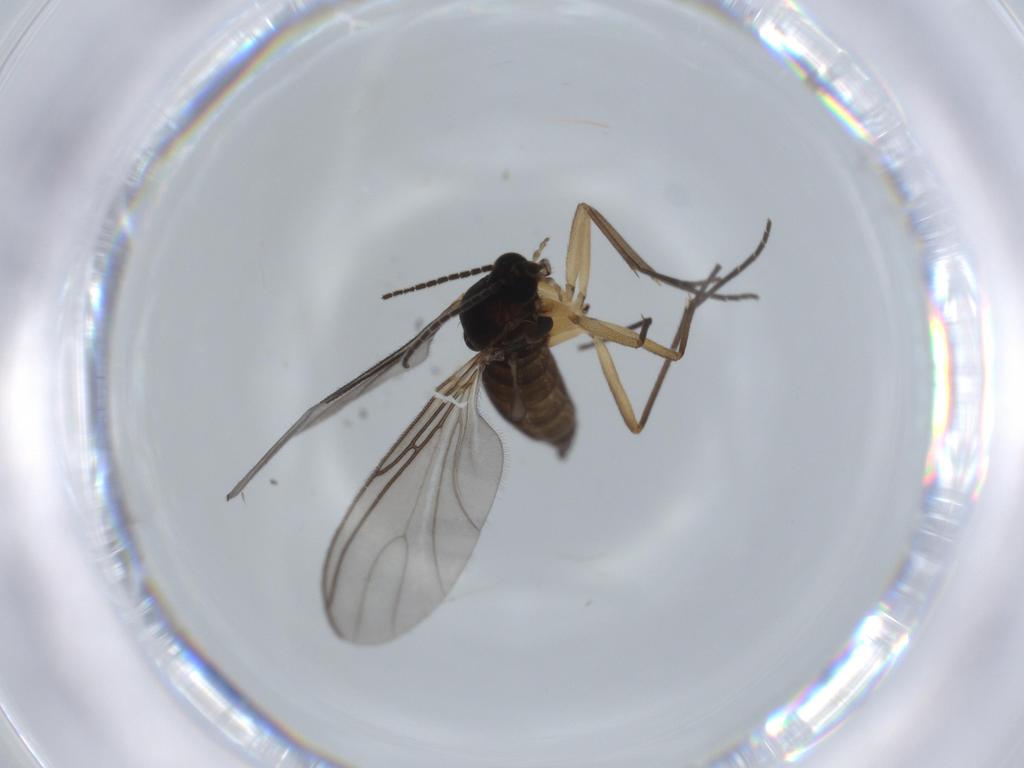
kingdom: Animalia
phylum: Arthropoda
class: Insecta
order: Diptera
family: Sciaridae
